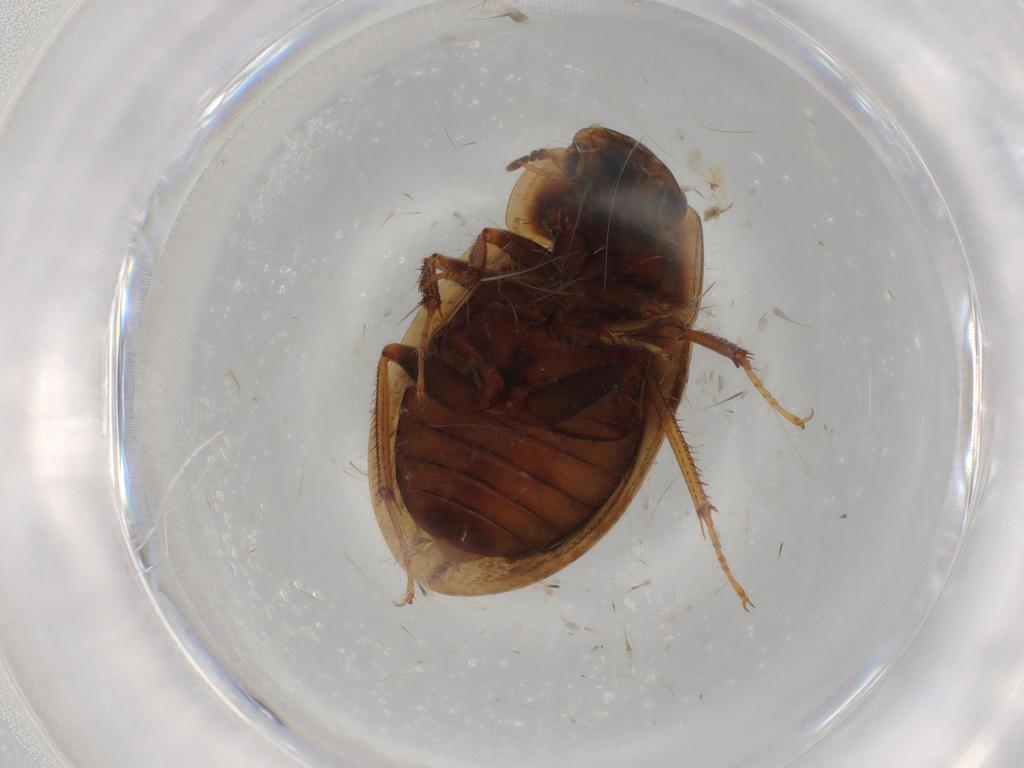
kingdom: Animalia
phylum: Arthropoda
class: Insecta
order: Coleoptera
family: Hydrophilidae
